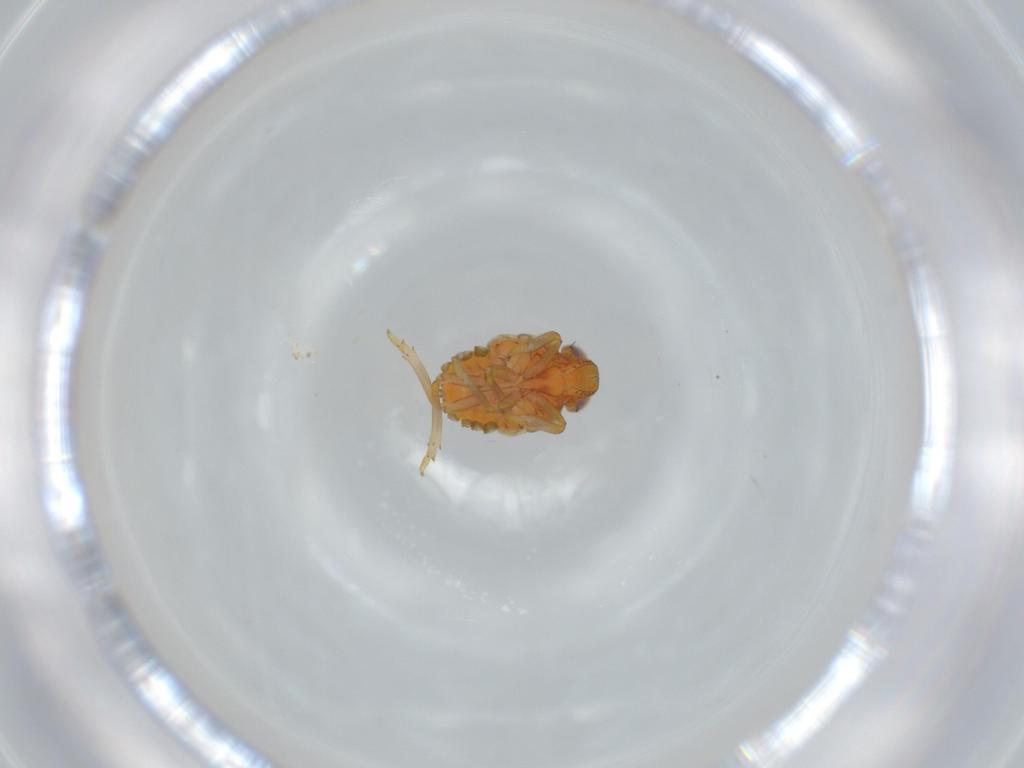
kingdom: Animalia
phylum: Arthropoda
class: Insecta
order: Hemiptera
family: Issidae
